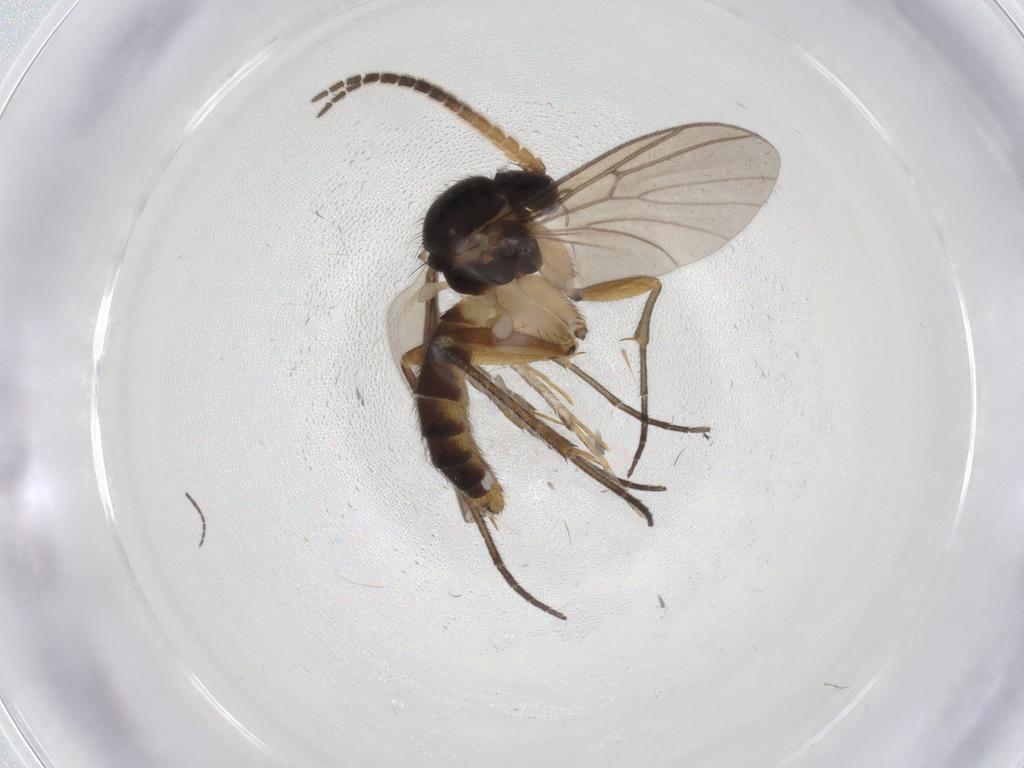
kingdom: Animalia
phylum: Arthropoda
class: Insecta
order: Diptera
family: Mycetophilidae
